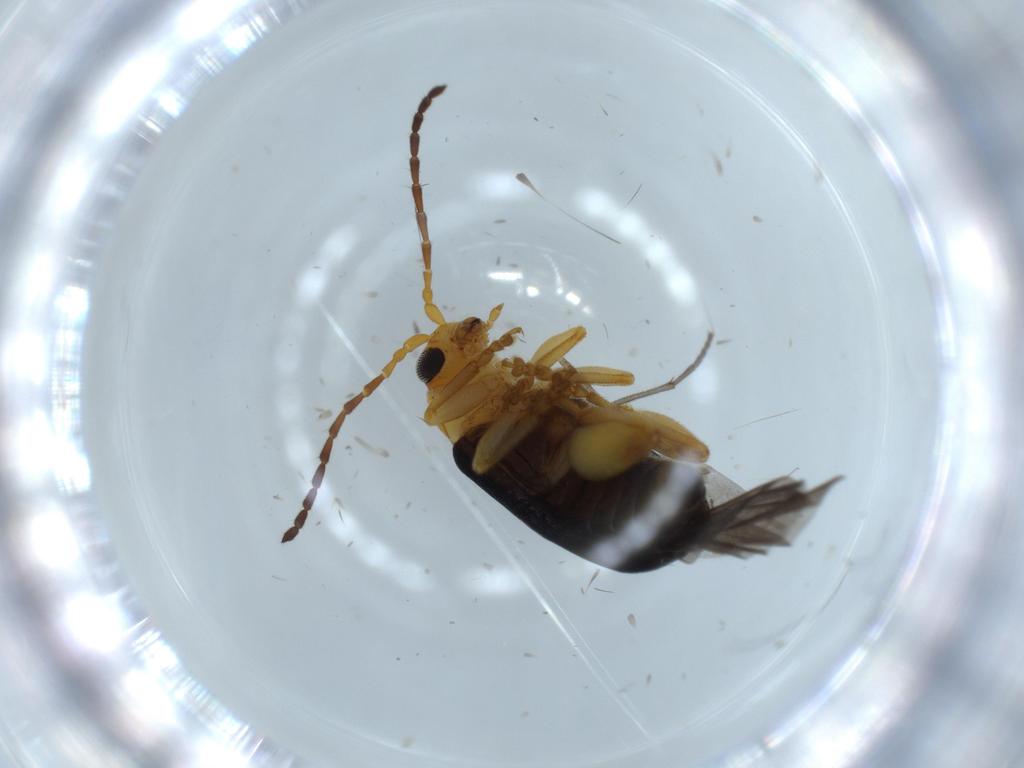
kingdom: Animalia
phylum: Arthropoda
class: Insecta
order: Coleoptera
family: Chrysomelidae
